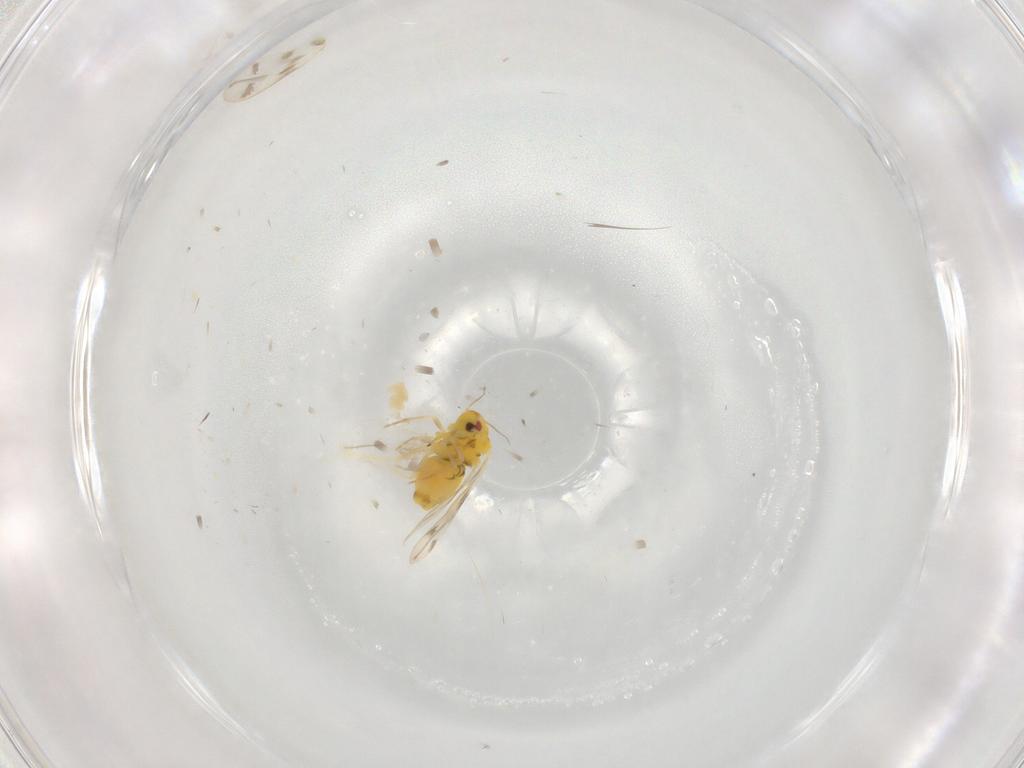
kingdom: Animalia
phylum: Arthropoda
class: Insecta
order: Hemiptera
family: Aleyrodidae
